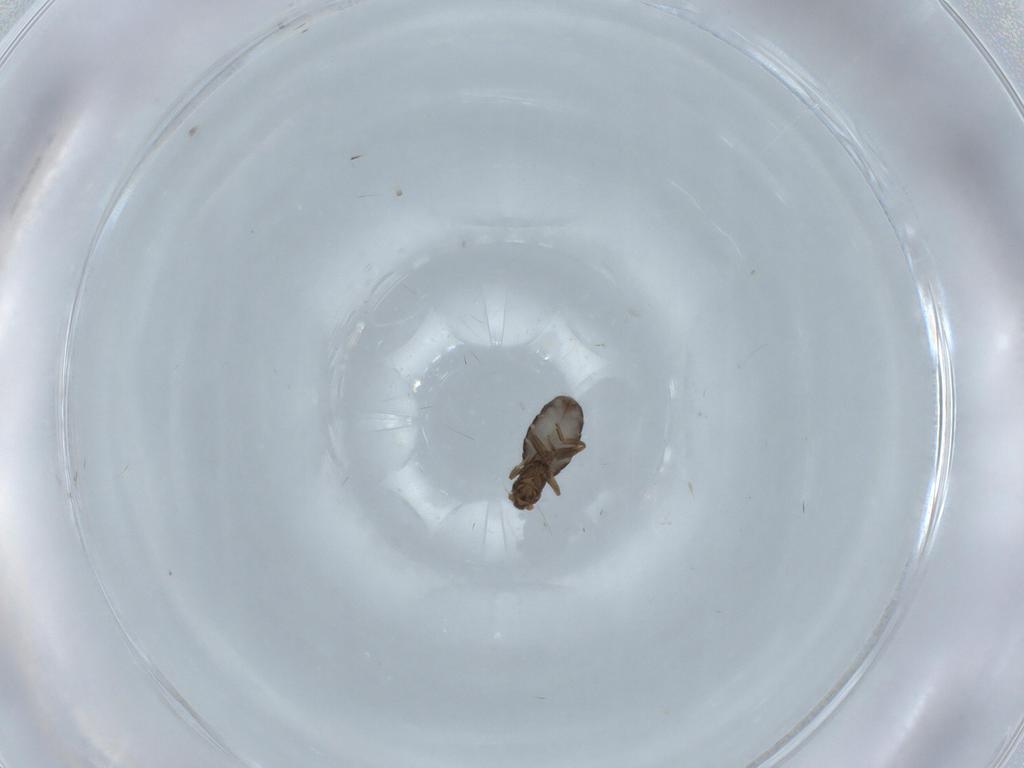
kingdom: Animalia
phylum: Arthropoda
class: Insecta
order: Diptera
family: Phoridae
